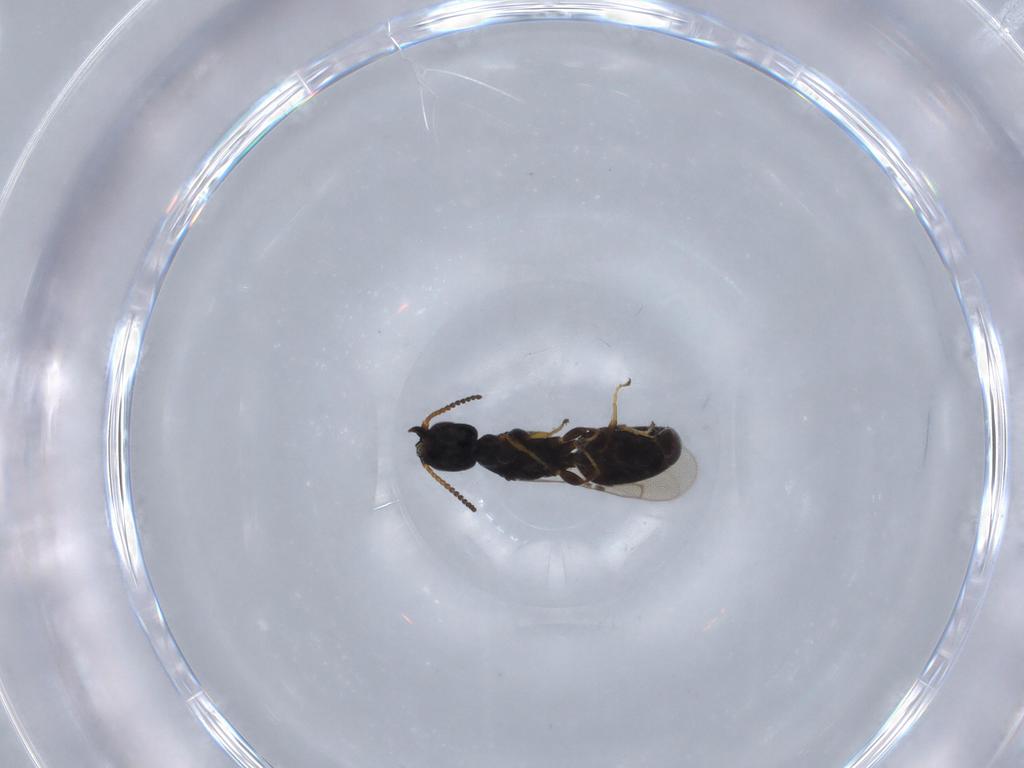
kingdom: Animalia
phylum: Arthropoda
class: Insecta
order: Hymenoptera
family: Bethylidae
